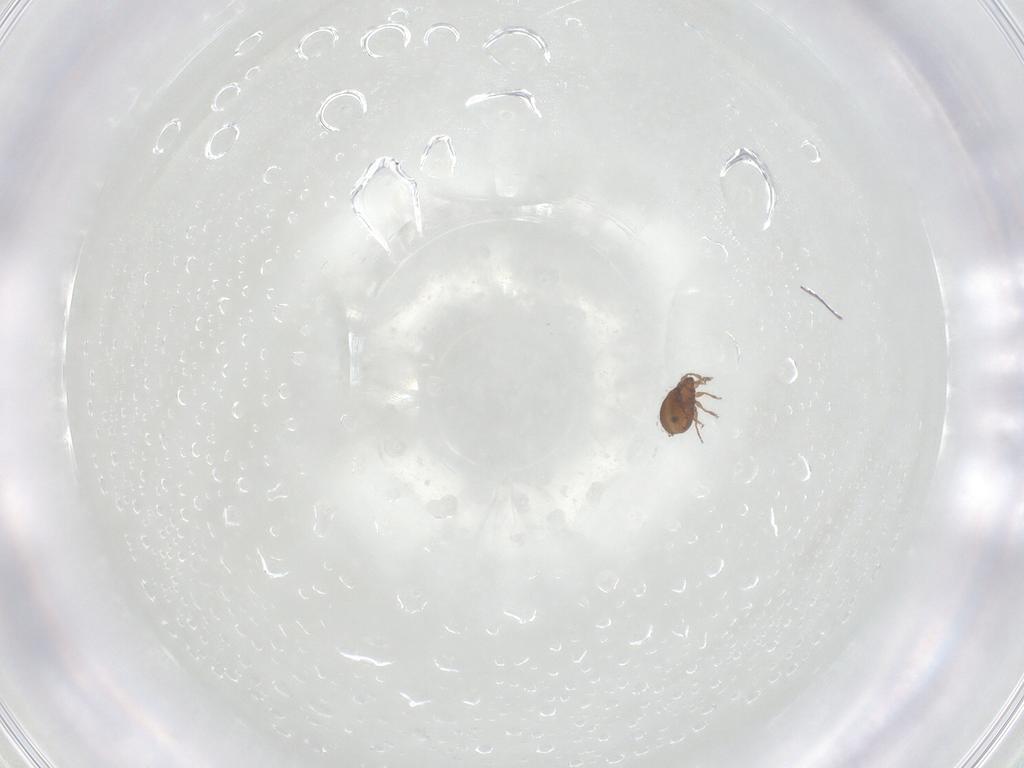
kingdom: Animalia
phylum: Arthropoda
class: Arachnida
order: Sarcoptiformes
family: Scheloribatidae
